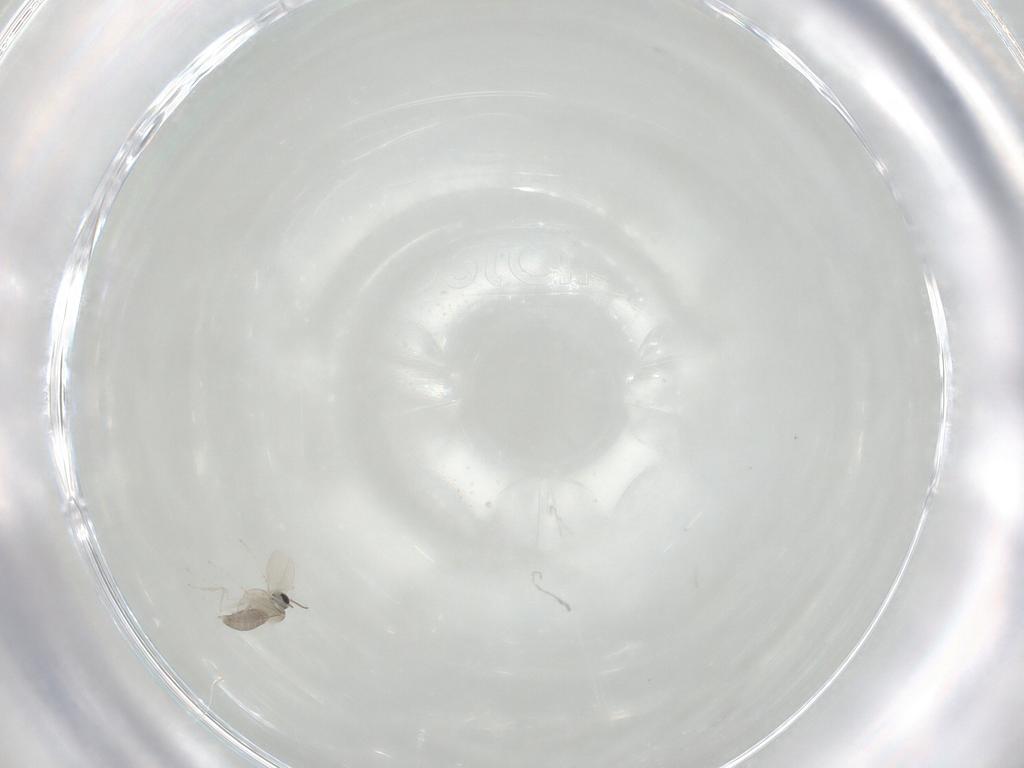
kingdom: Animalia
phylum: Arthropoda
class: Insecta
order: Diptera
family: Cecidomyiidae
